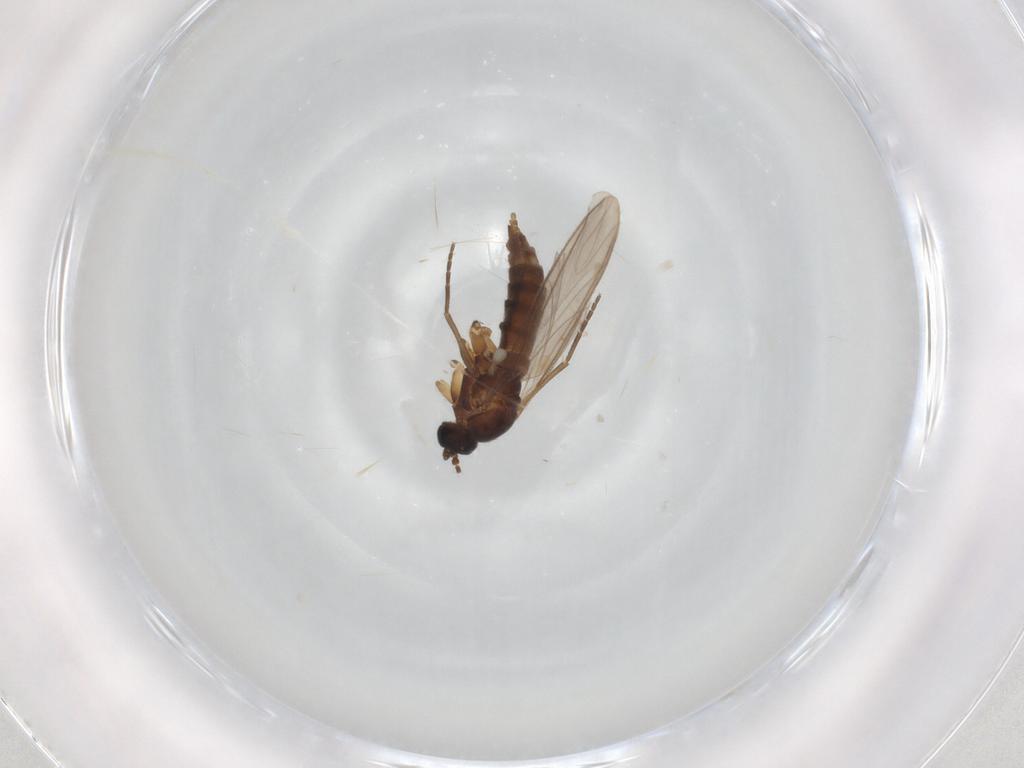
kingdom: Animalia
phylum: Arthropoda
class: Insecta
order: Diptera
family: Sciaridae
